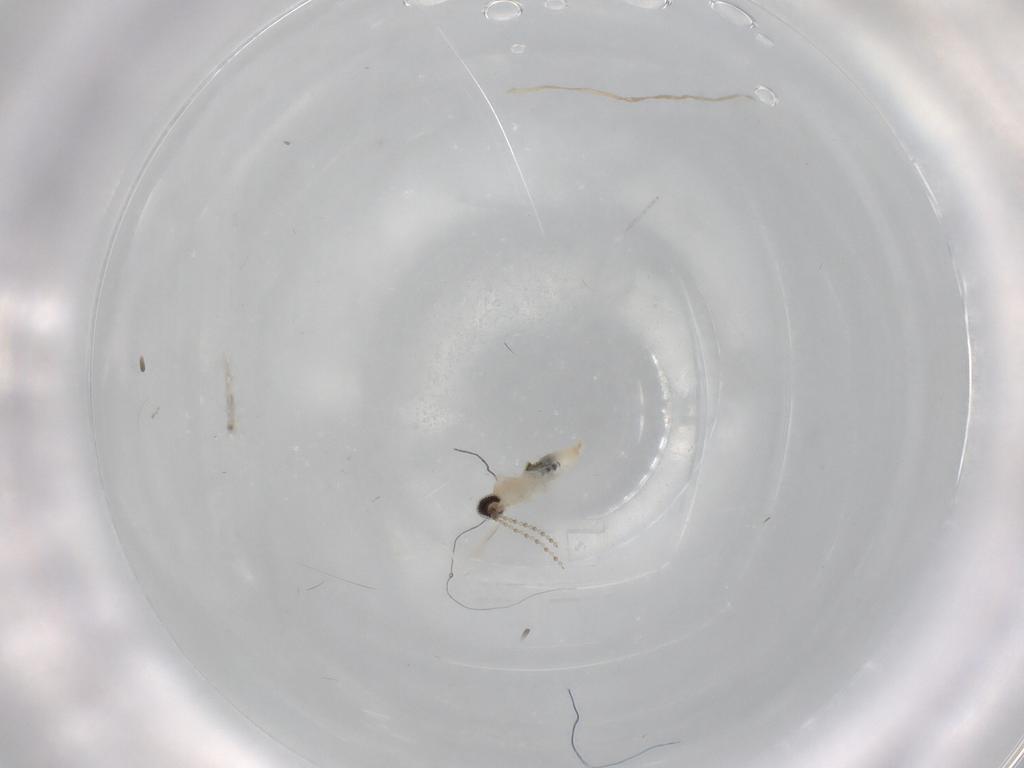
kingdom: Animalia
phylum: Arthropoda
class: Insecta
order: Diptera
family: Cecidomyiidae
